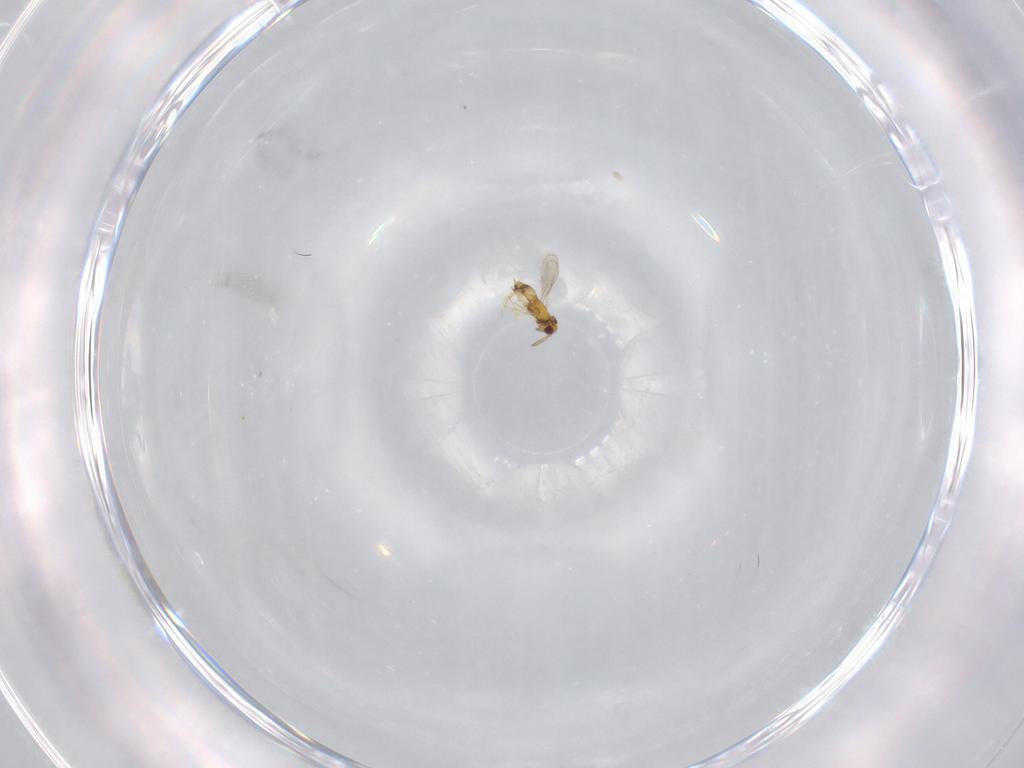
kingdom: Animalia
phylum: Arthropoda
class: Insecta
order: Hymenoptera
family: Aphelinidae
